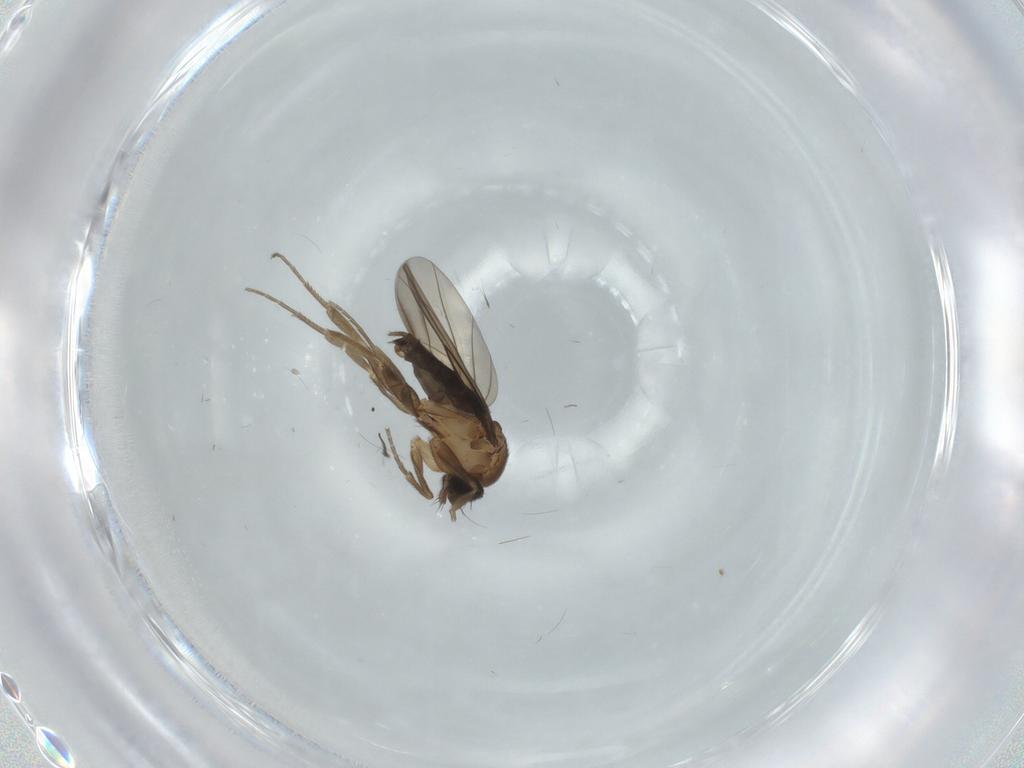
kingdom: Animalia
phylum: Arthropoda
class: Insecta
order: Diptera
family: Phoridae
